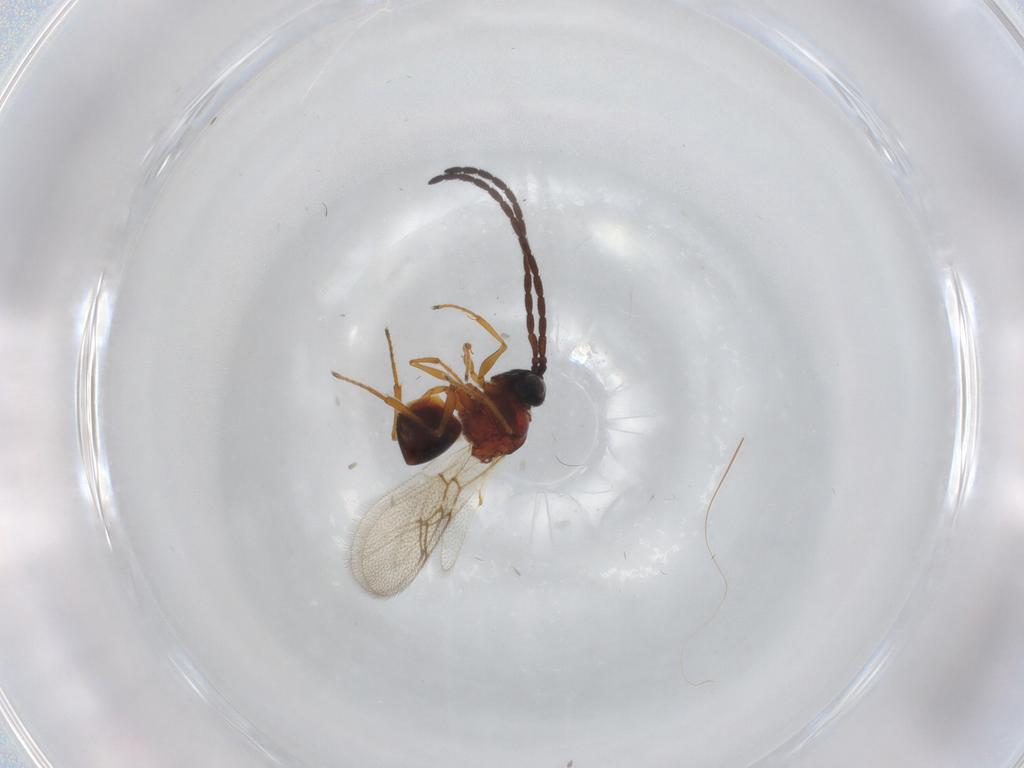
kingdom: Animalia
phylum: Arthropoda
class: Insecta
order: Hymenoptera
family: Figitidae
